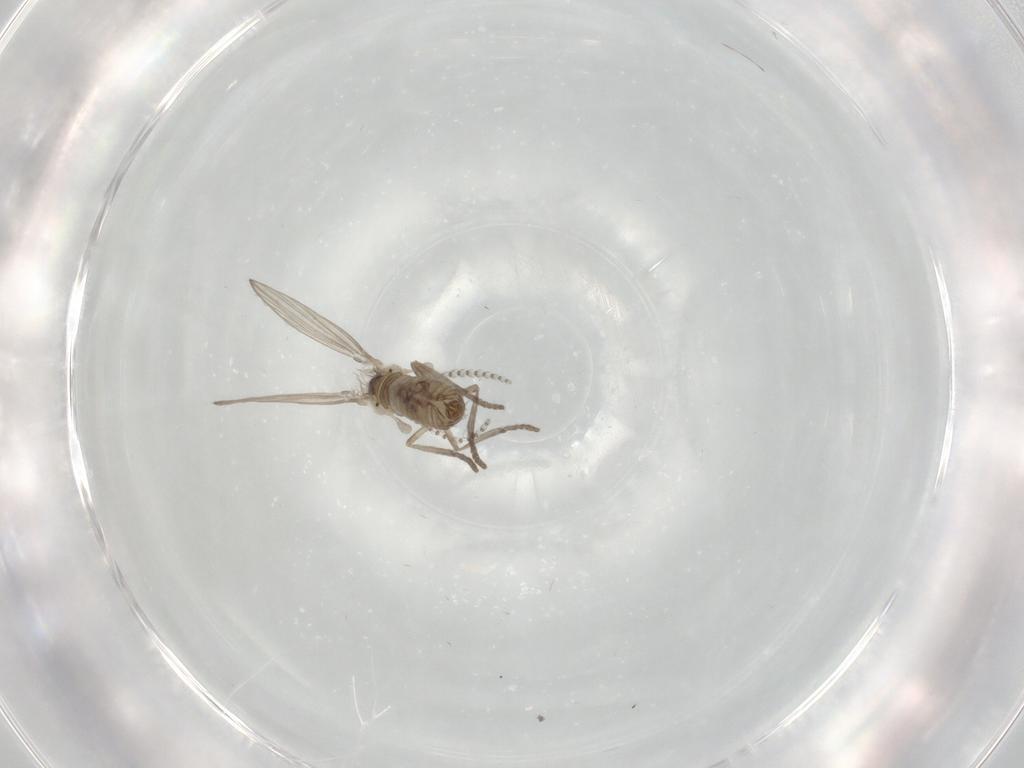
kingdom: Animalia
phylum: Arthropoda
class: Insecta
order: Diptera
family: Psychodidae
